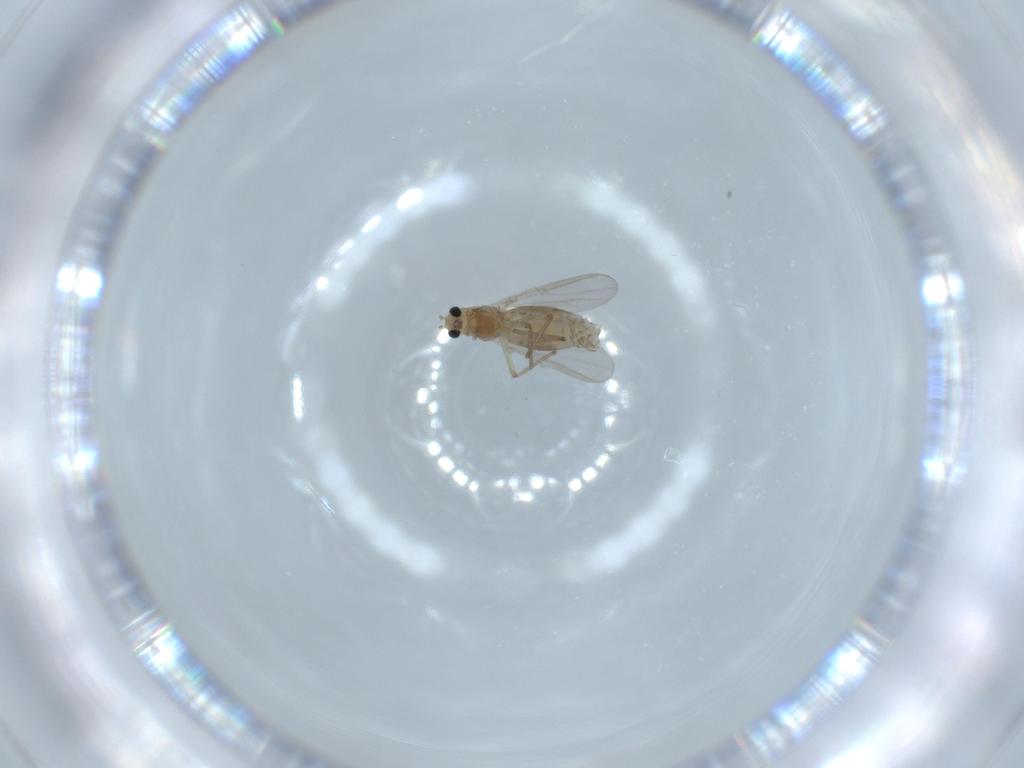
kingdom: Animalia
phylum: Arthropoda
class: Insecta
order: Diptera
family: Chironomidae
